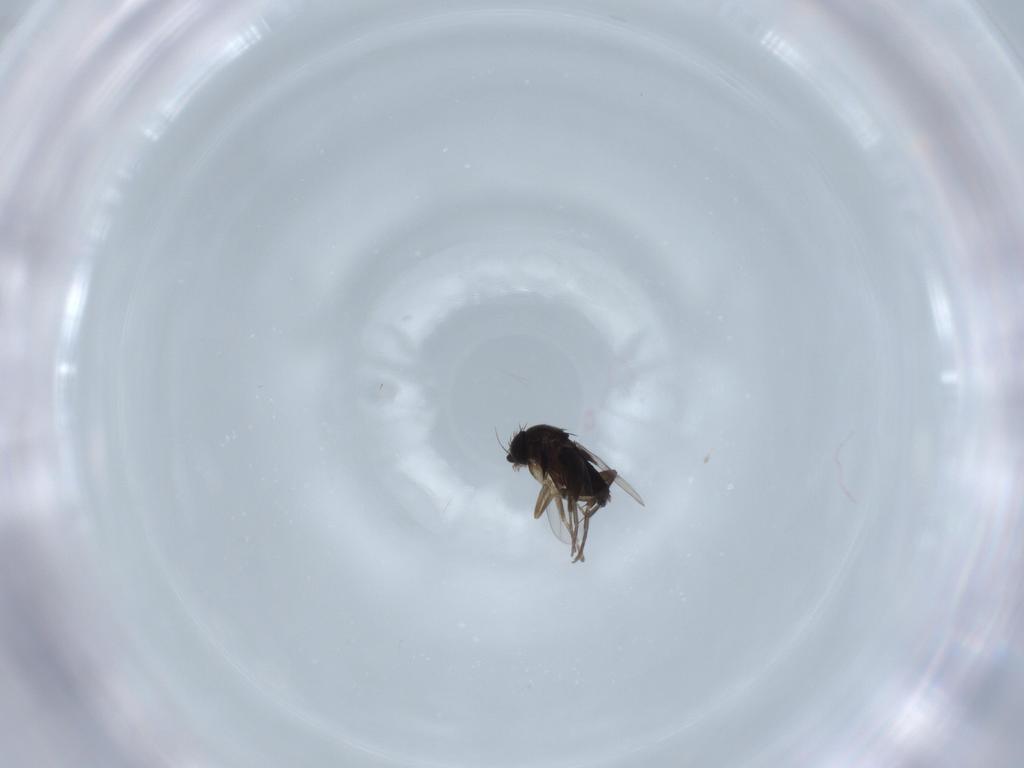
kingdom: Animalia
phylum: Arthropoda
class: Insecta
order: Diptera
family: Phoridae
